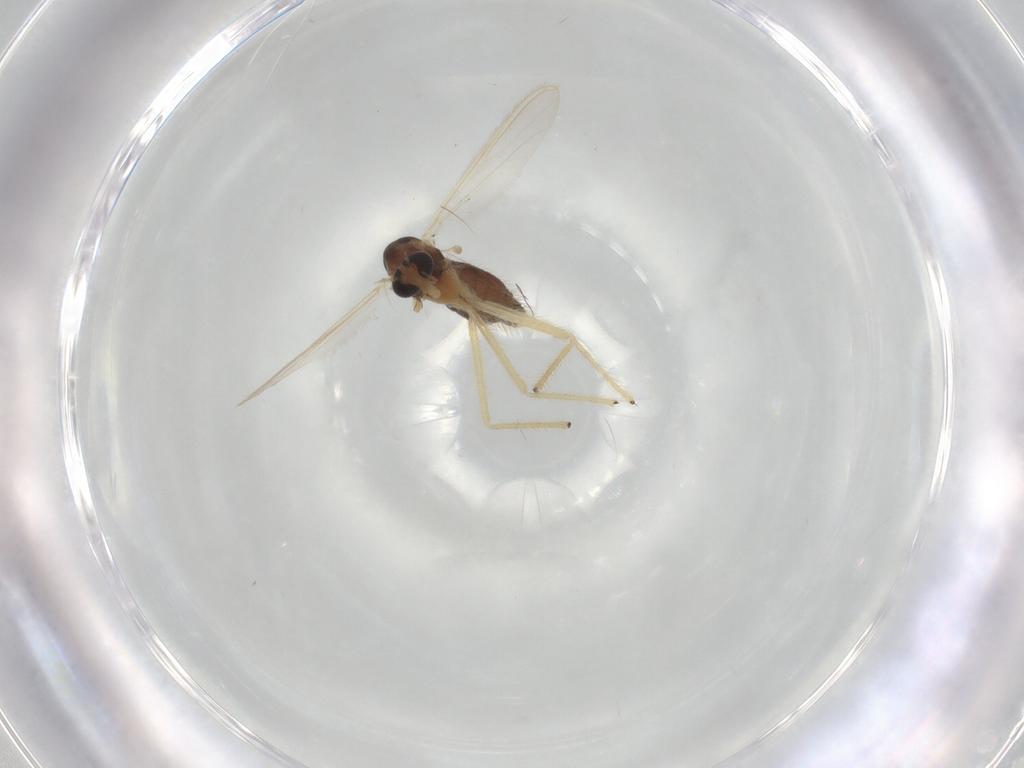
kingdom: Animalia
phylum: Arthropoda
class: Insecta
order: Diptera
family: Chironomidae
